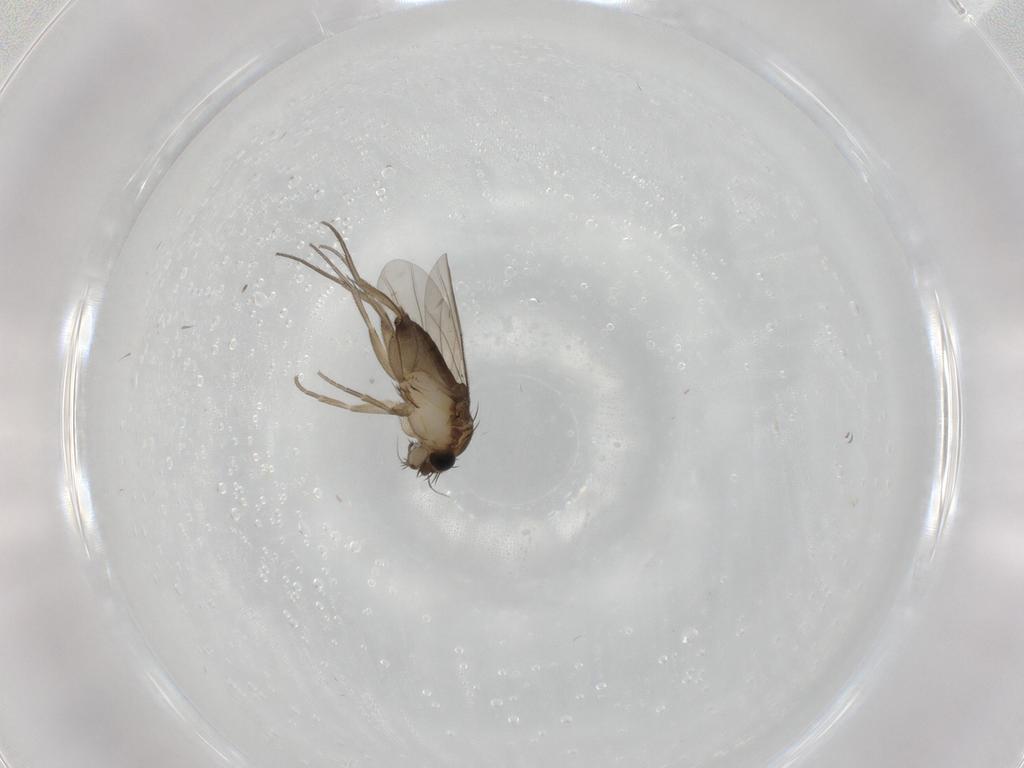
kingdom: Animalia
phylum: Arthropoda
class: Insecta
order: Diptera
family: Phoridae
